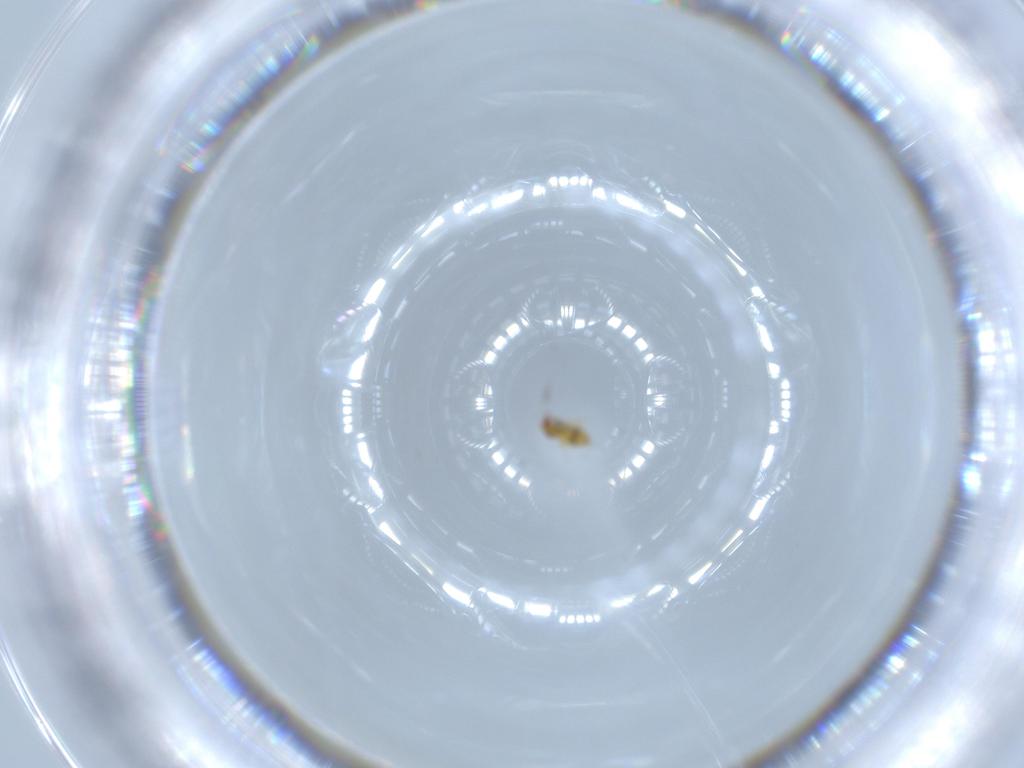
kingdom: Animalia
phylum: Arthropoda
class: Insecta
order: Hymenoptera
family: Trichogrammatidae
